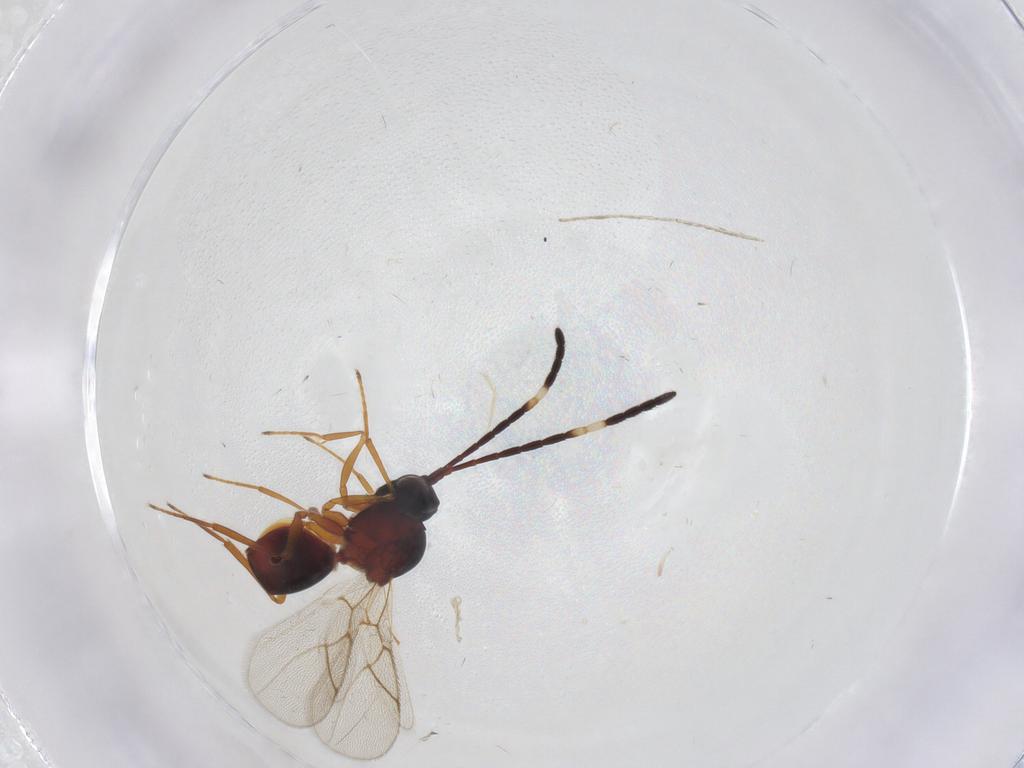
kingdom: Animalia
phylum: Arthropoda
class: Insecta
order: Hymenoptera
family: Figitidae
